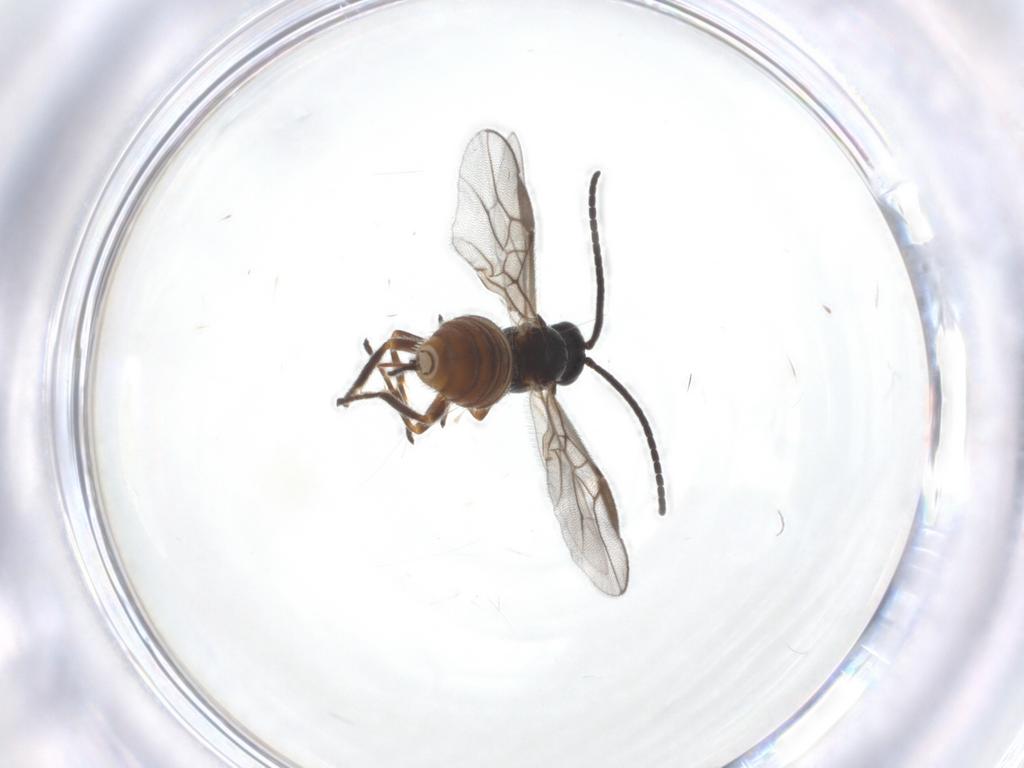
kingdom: Animalia
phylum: Arthropoda
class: Insecta
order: Hymenoptera
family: Braconidae
